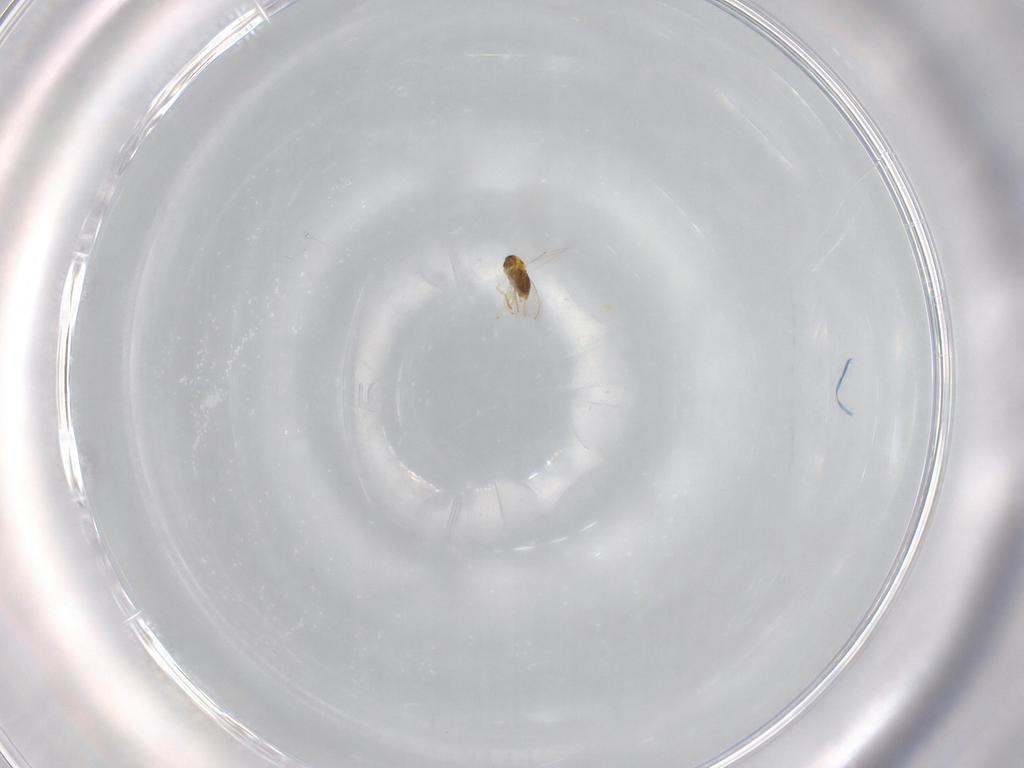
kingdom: Animalia
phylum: Arthropoda
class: Insecta
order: Hymenoptera
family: Aphelinidae
